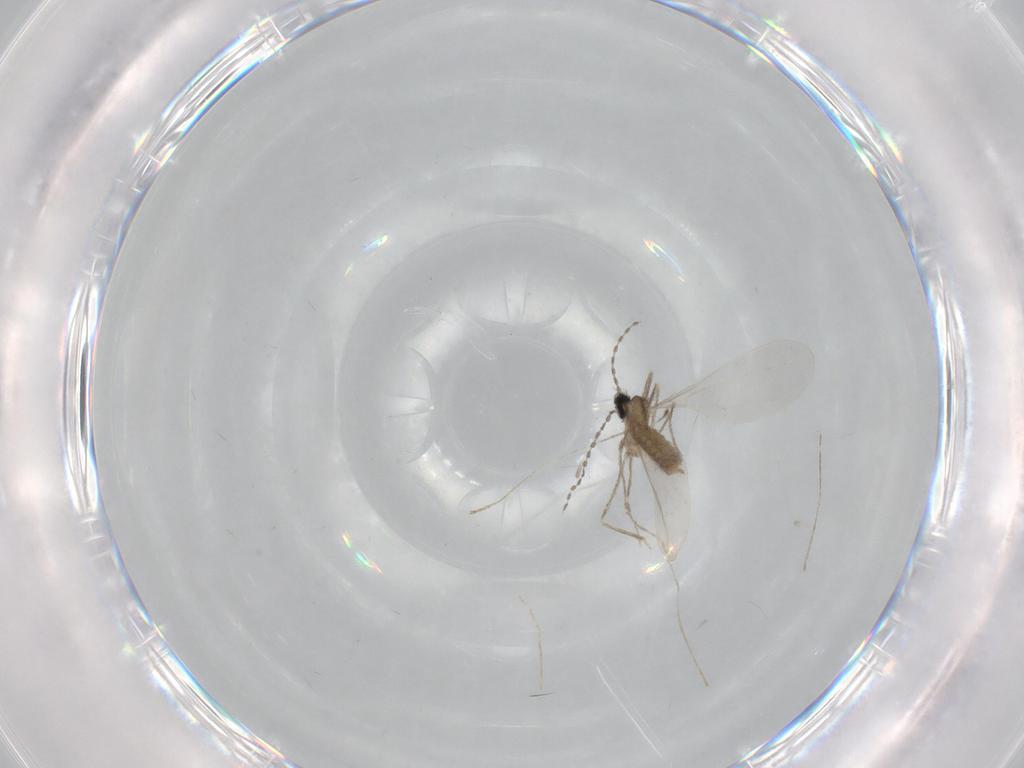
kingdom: Animalia
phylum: Arthropoda
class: Insecta
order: Diptera
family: Cecidomyiidae
